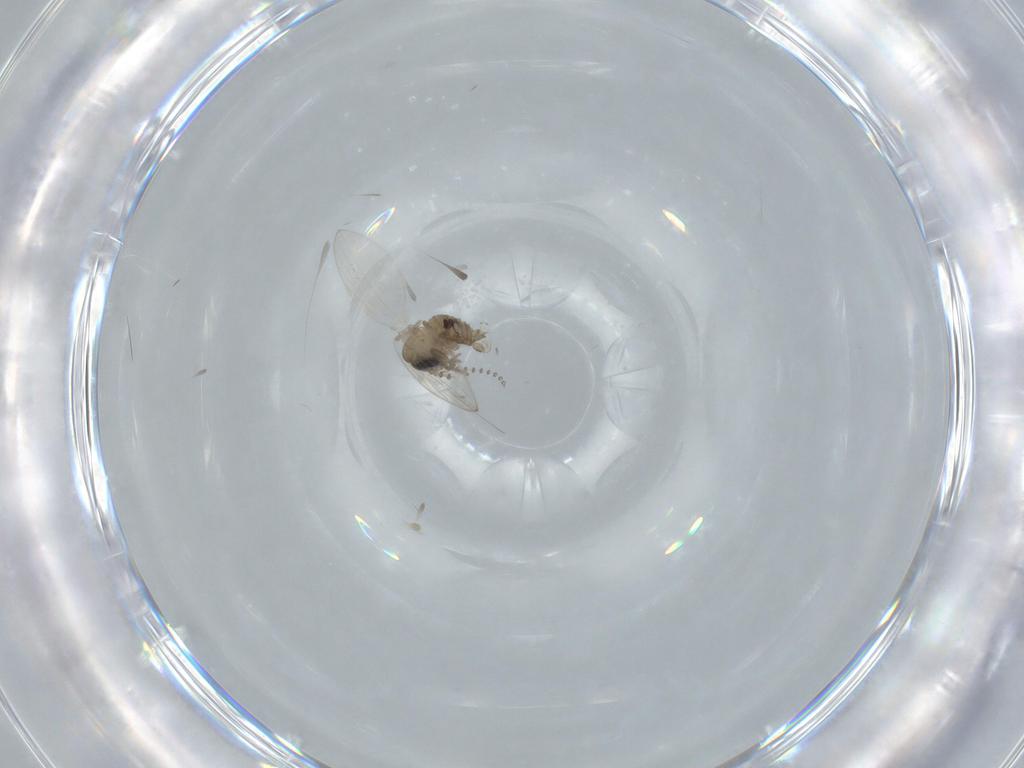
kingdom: Animalia
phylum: Arthropoda
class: Insecta
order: Diptera
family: Psychodidae
